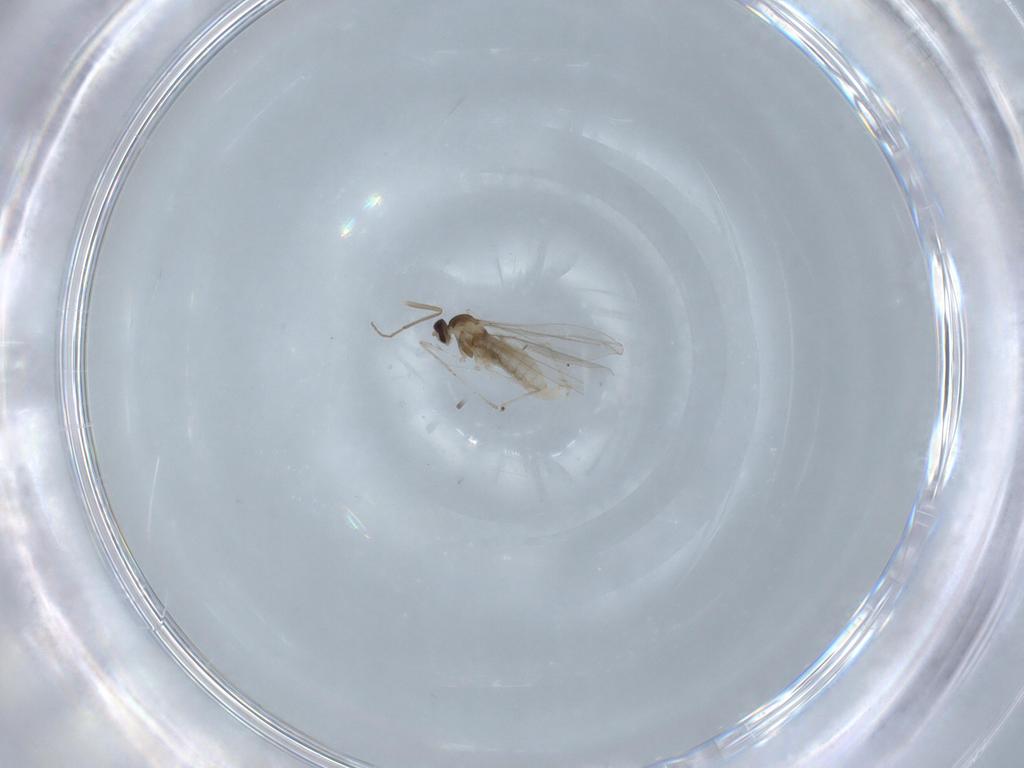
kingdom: Animalia
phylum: Arthropoda
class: Insecta
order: Diptera
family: Cecidomyiidae
